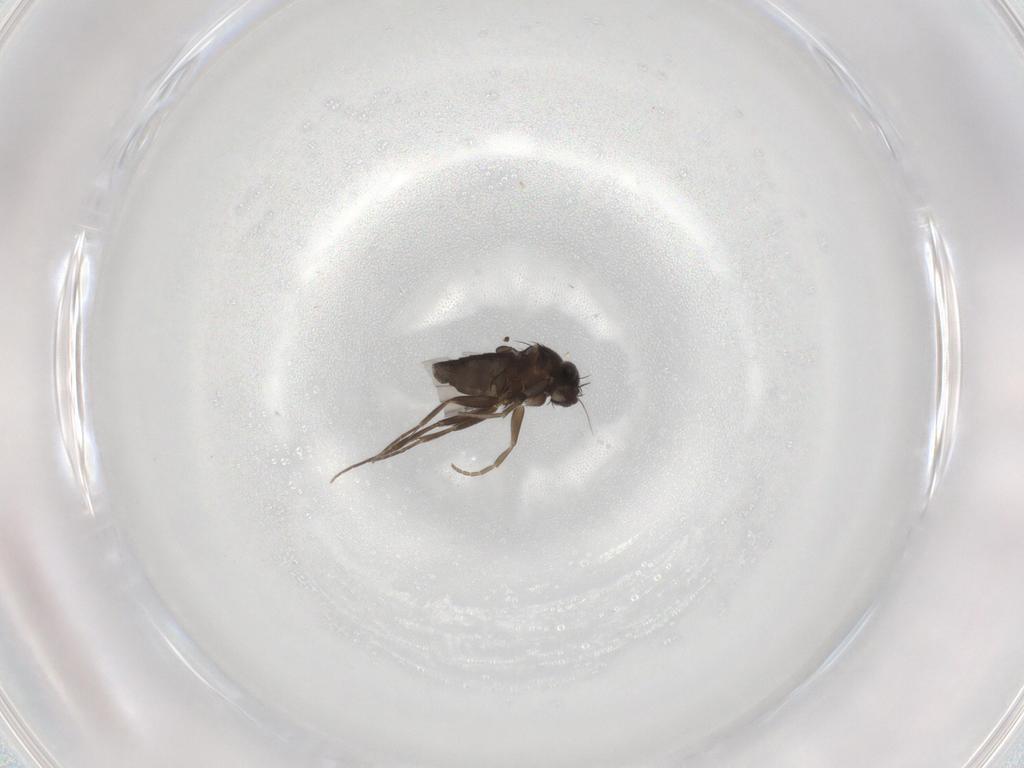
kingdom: Animalia
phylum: Arthropoda
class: Insecta
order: Diptera
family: Phoridae
